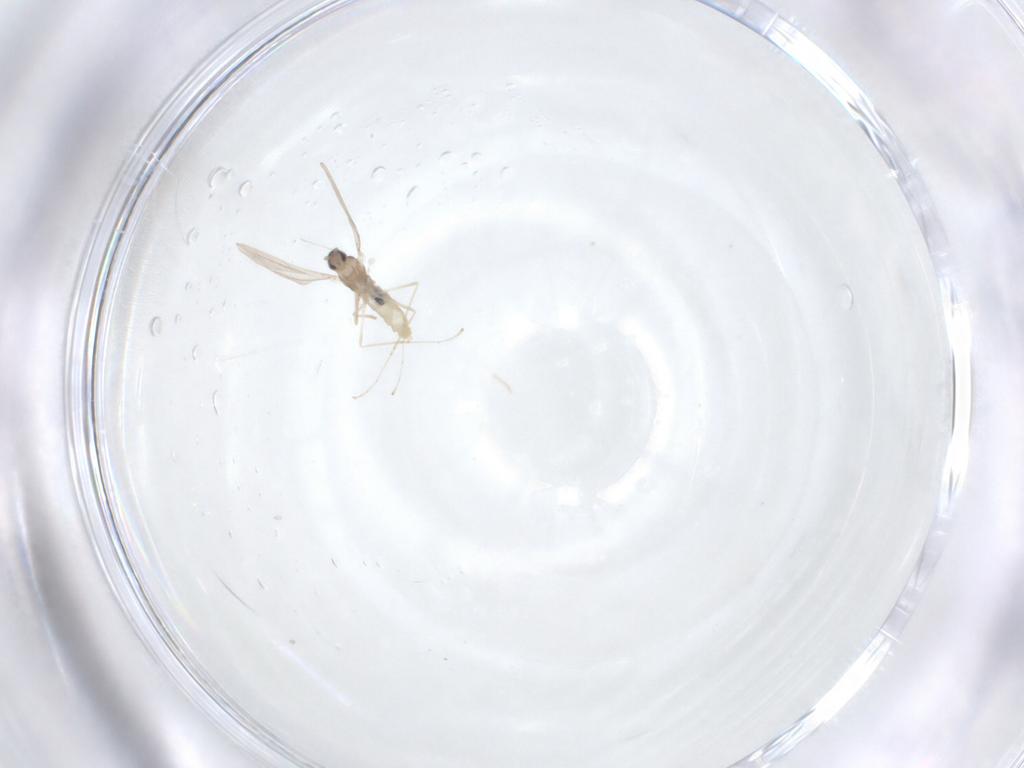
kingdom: Animalia
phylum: Arthropoda
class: Insecta
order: Diptera
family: Cecidomyiidae
